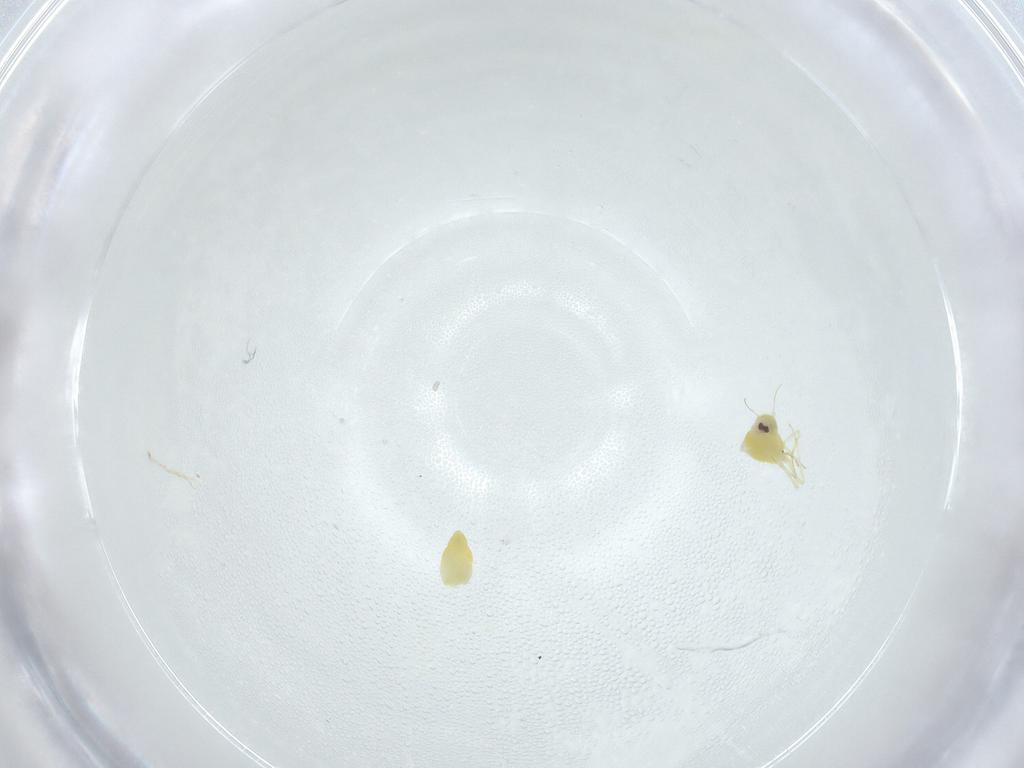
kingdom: Animalia
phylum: Arthropoda
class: Insecta
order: Hemiptera
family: Aleyrodidae
